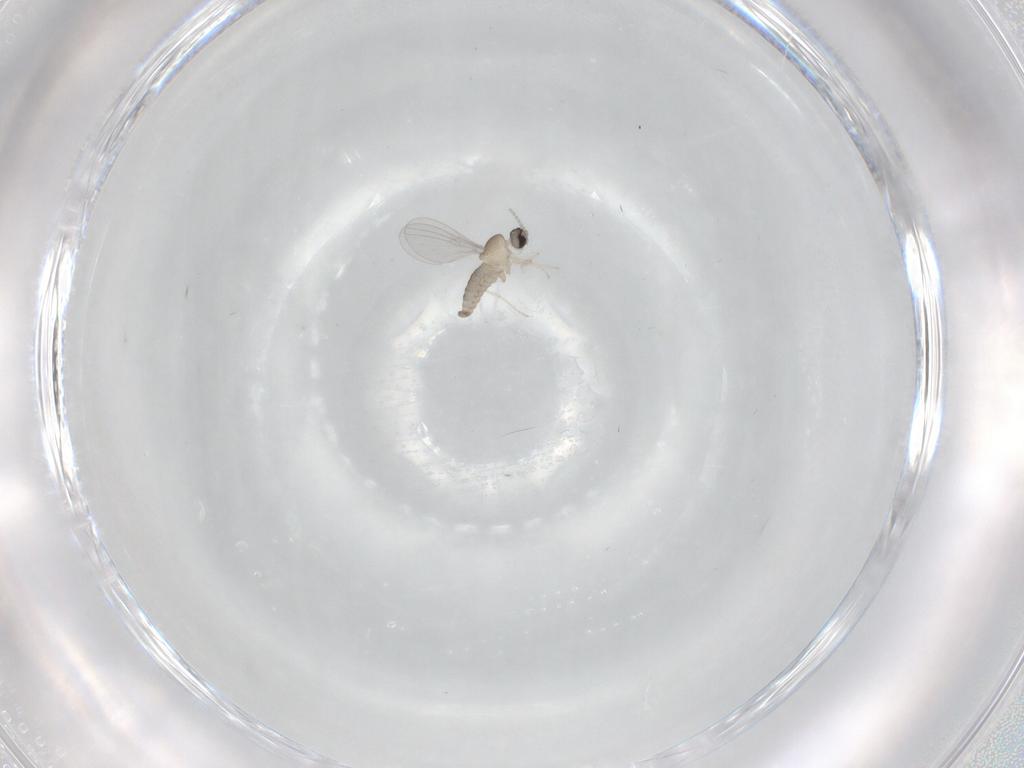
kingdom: Animalia
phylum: Arthropoda
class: Insecta
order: Diptera
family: Cecidomyiidae
